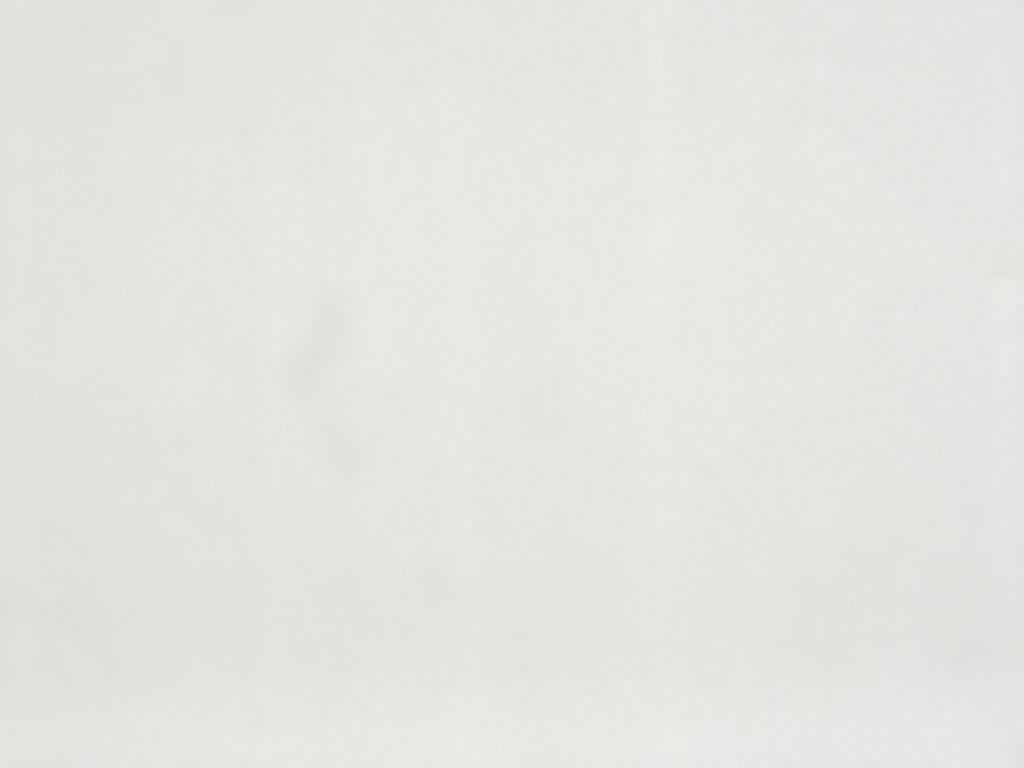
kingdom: Animalia
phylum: Arthropoda
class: Insecta
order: Diptera
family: Cecidomyiidae
